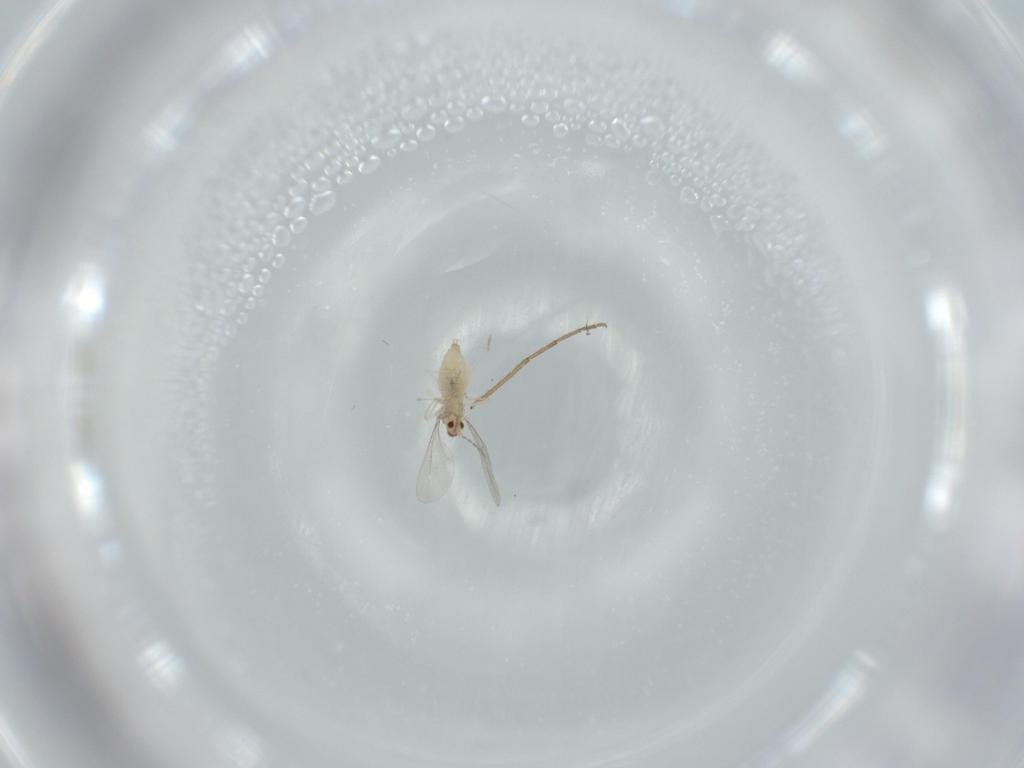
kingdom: Animalia
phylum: Arthropoda
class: Insecta
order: Diptera
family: Cecidomyiidae
